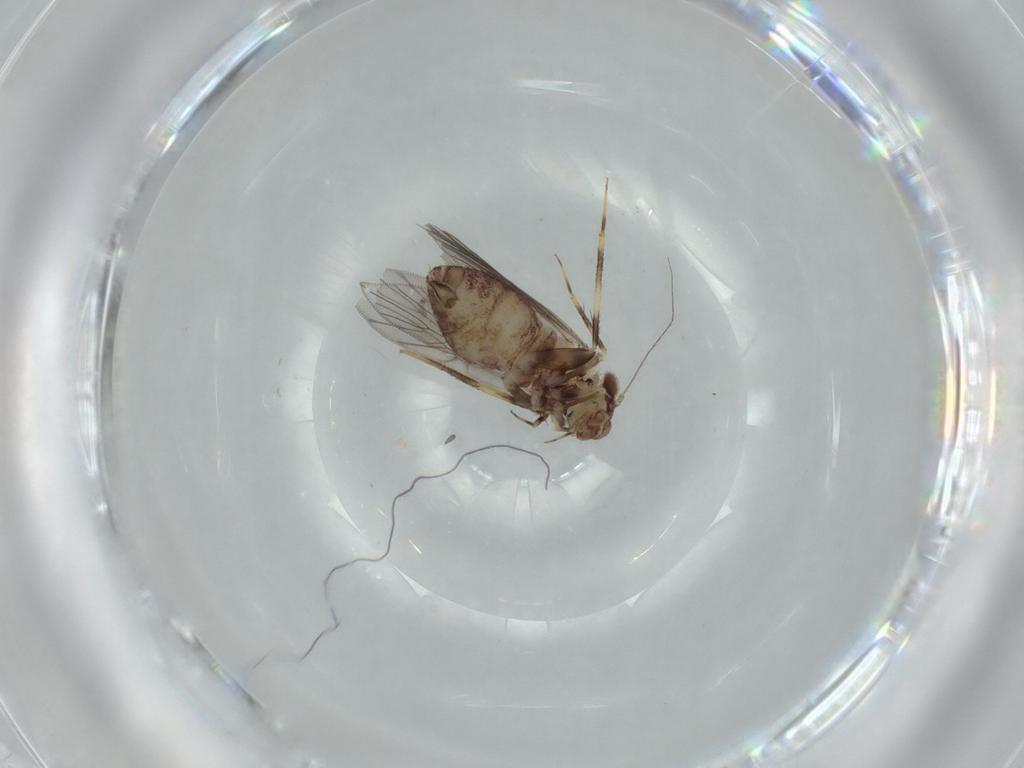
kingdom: Animalia
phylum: Arthropoda
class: Insecta
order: Psocodea
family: Lepidopsocidae
